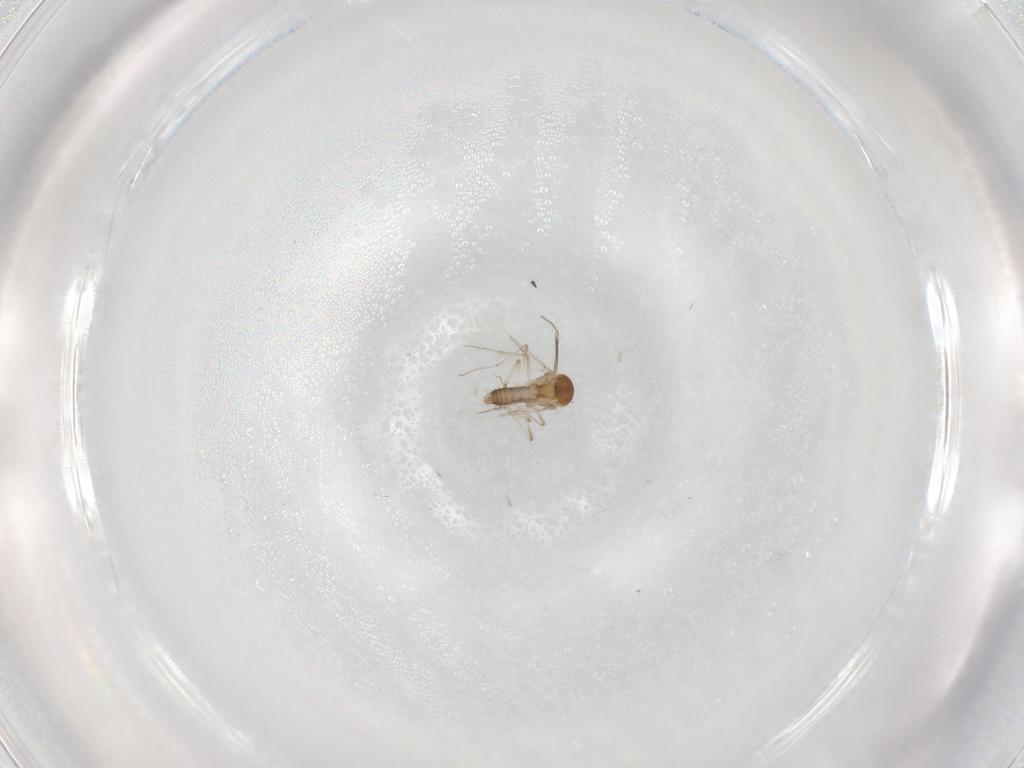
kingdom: Animalia
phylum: Arthropoda
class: Insecta
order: Diptera
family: Ceratopogonidae
